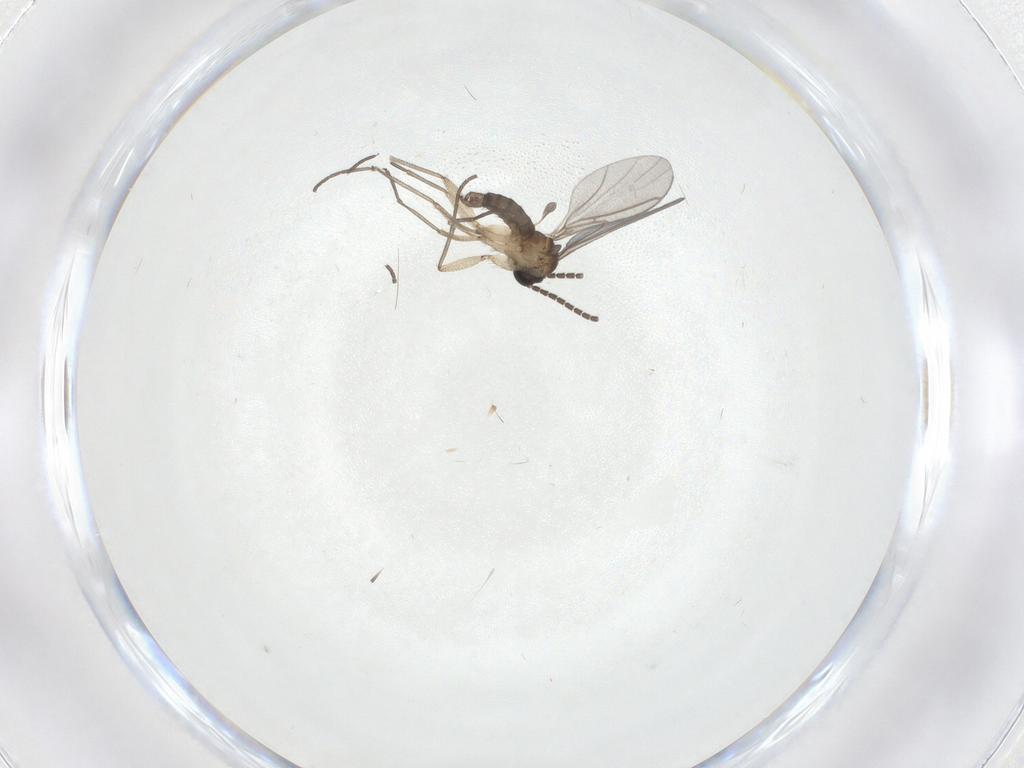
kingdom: Animalia
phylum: Arthropoda
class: Insecta
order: Diptera
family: Sciaridae
